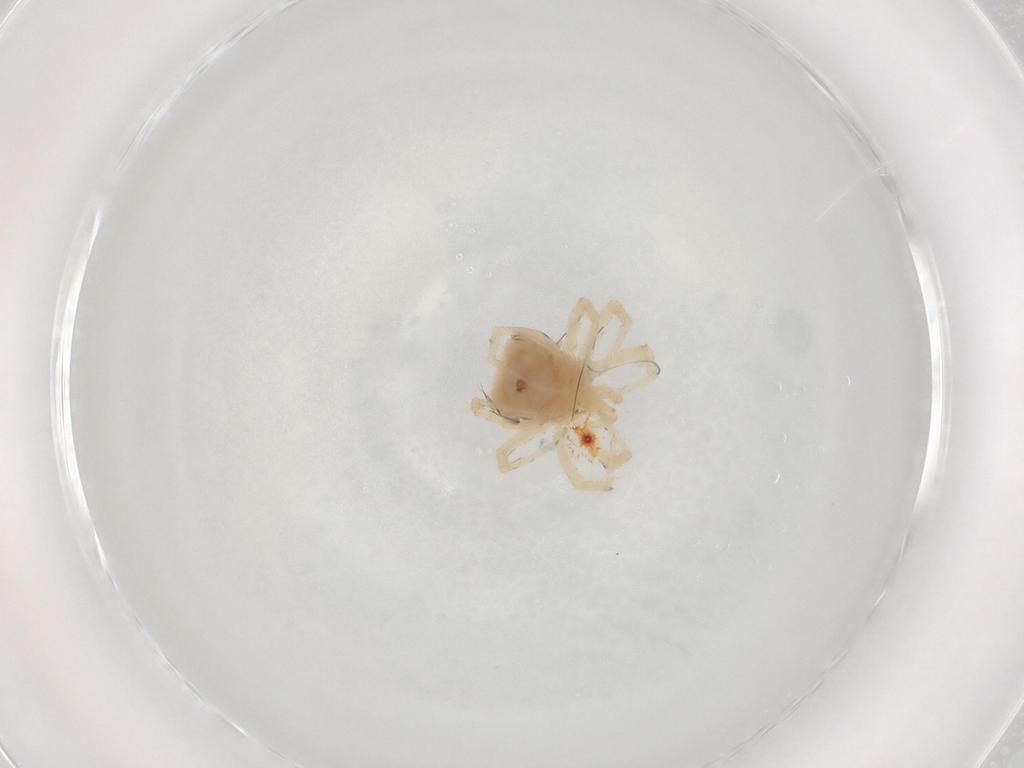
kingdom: Animalia
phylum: Arthropoda
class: Arachnida
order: Trombidiformes
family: Anystidae
